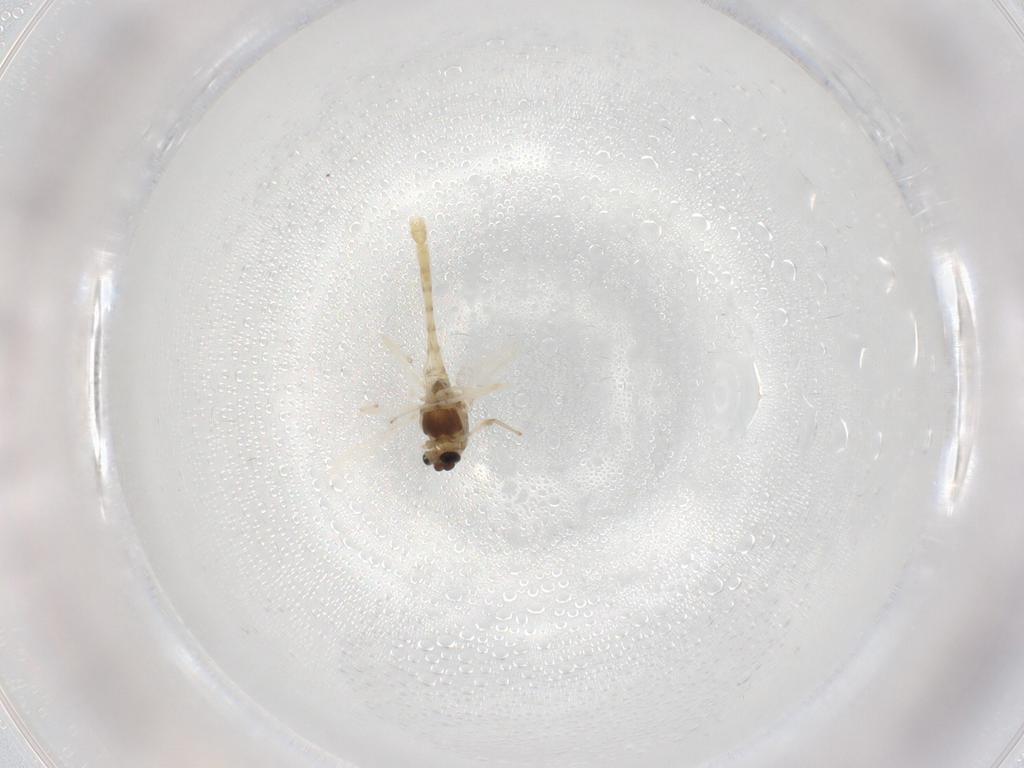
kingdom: Animalia
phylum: Arthropoda
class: Insecta
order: Diptera
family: Chironomidae
